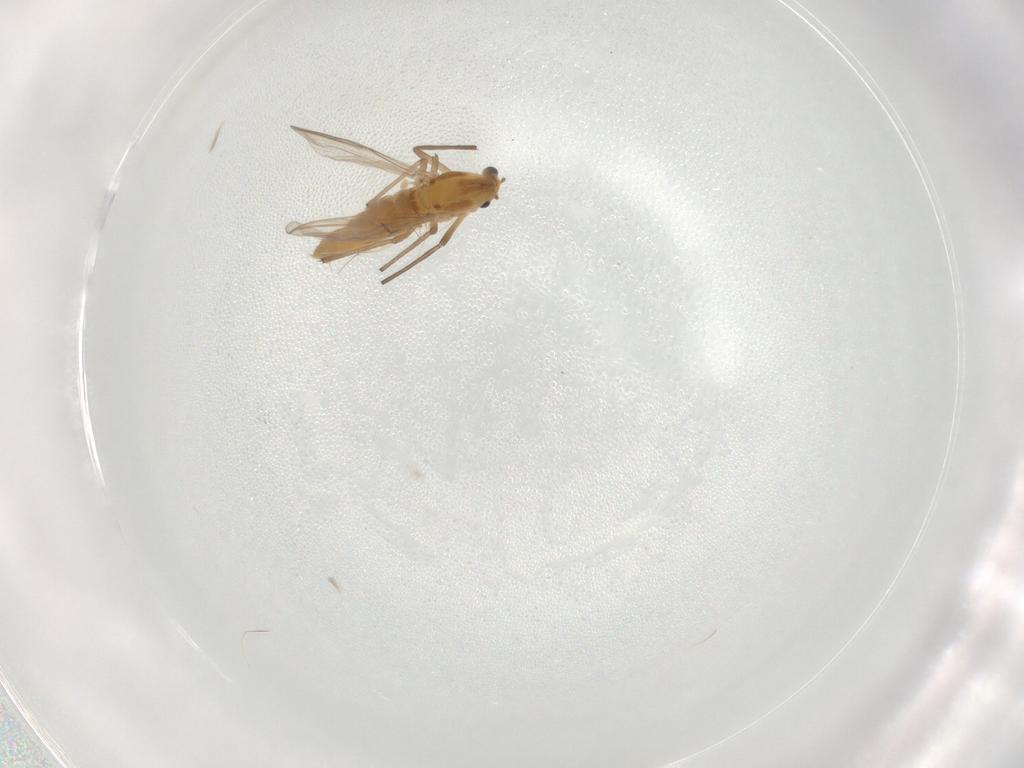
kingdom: Animalia
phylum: Arthropoda
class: Insecta
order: Diptera
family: Chironomidae
